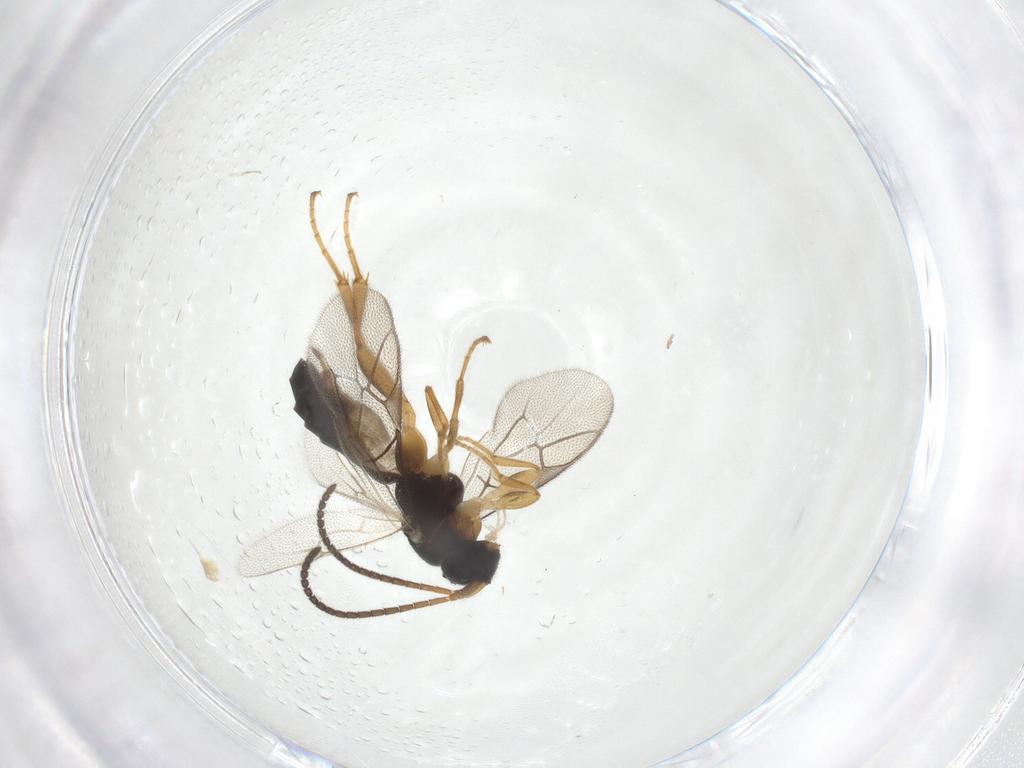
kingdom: Animalia
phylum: Arthropoda
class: Insecta
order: Hymenoptera
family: Ichneumonidae
